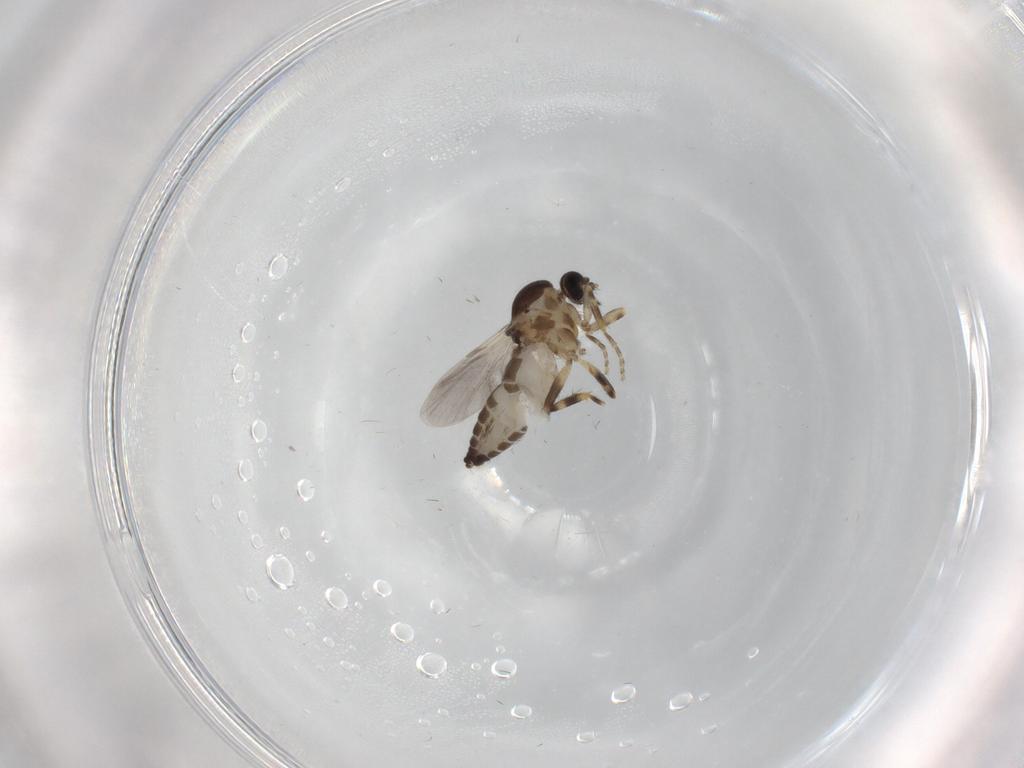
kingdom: Animalia
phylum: Arthropoda
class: Insecta
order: Diptera
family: Ceratopogonidae
